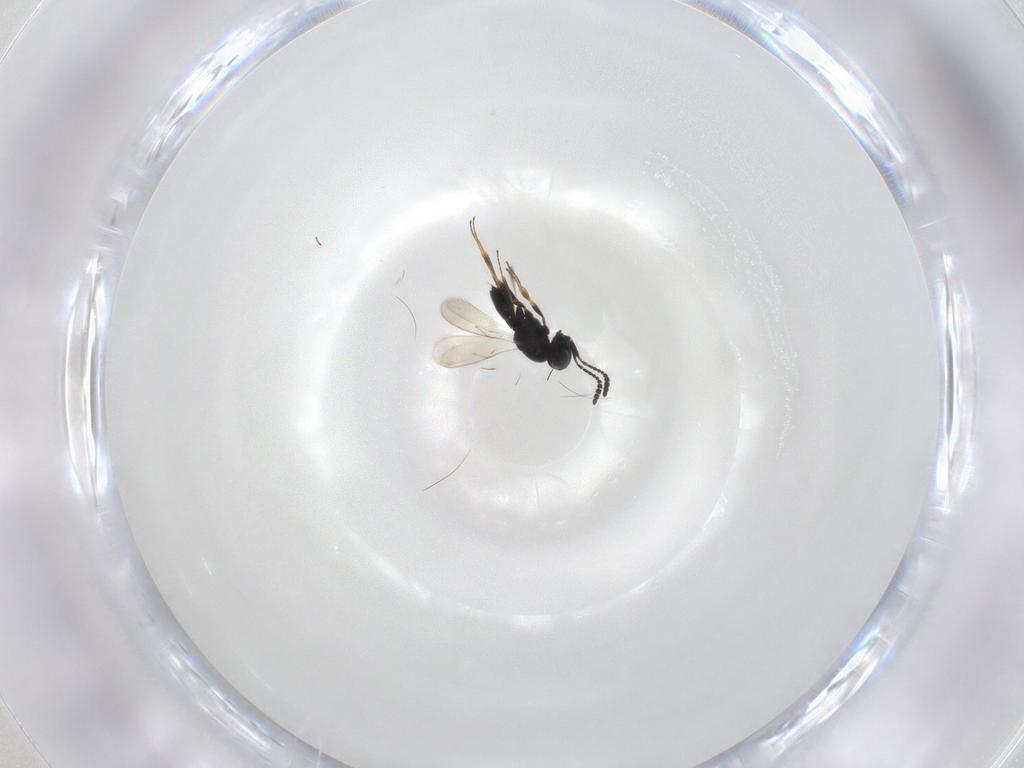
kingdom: Animalia
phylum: Arthropoda
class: Insecta
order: Hymenoptera
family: Scelionidae
